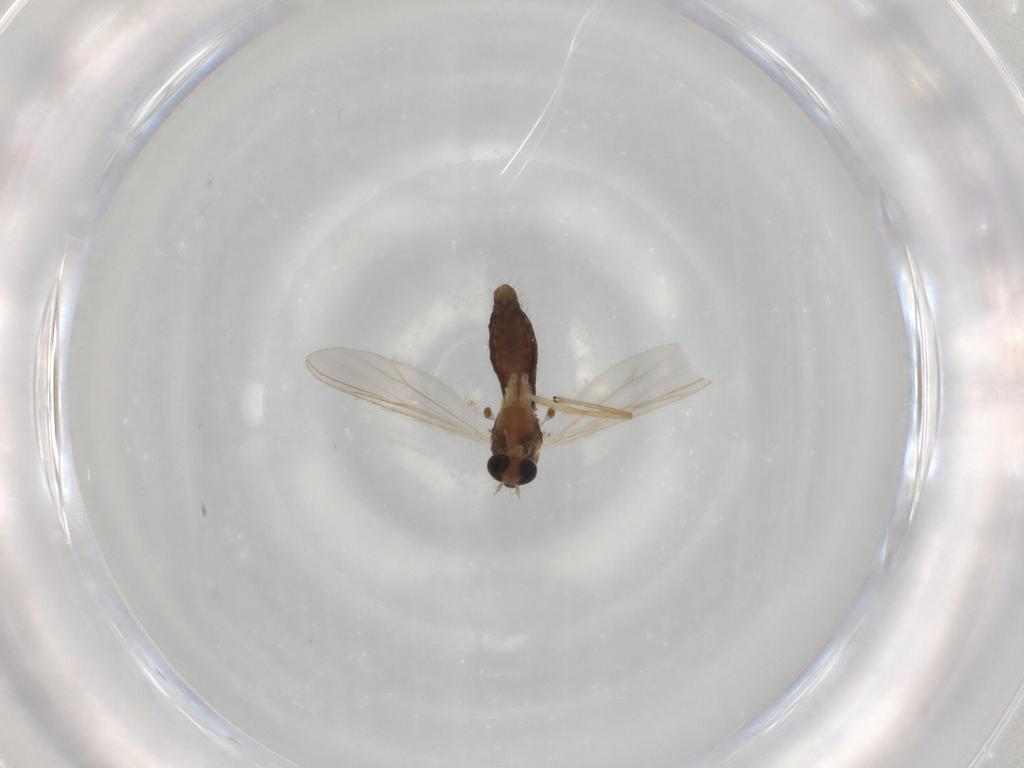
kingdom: Animalia
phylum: Arthropoda
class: Insecta
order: Diptera
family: Chironomidae
